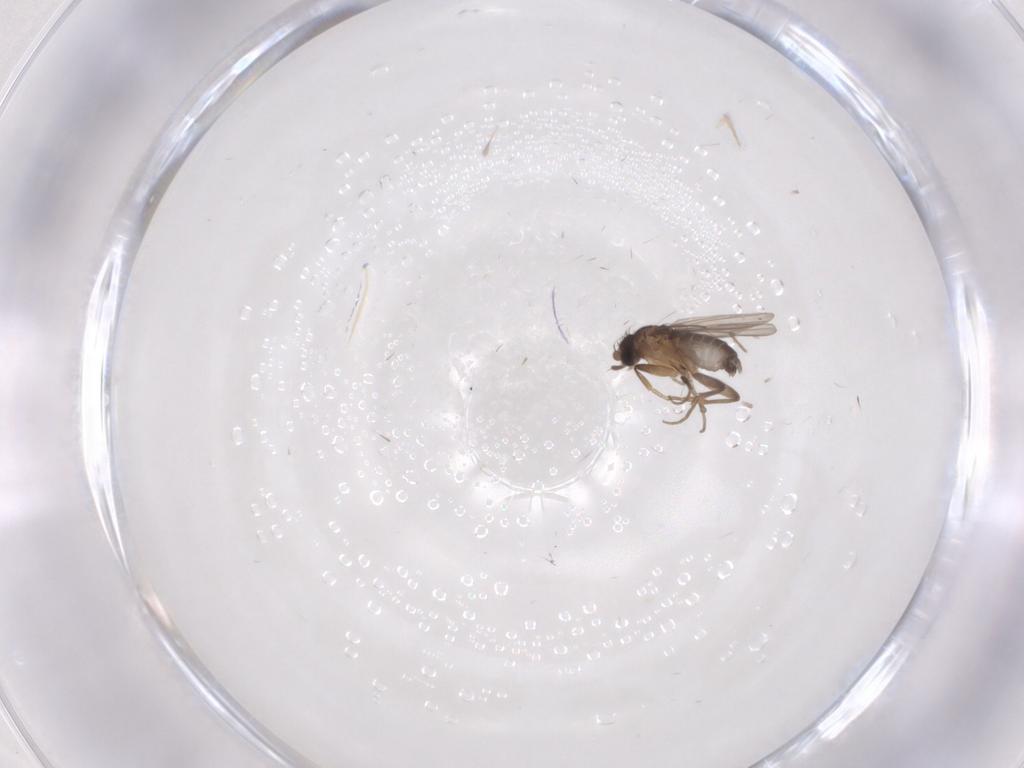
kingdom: Animalia
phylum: Arthropoda
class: Insecta
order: Diptera
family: Phoridae
